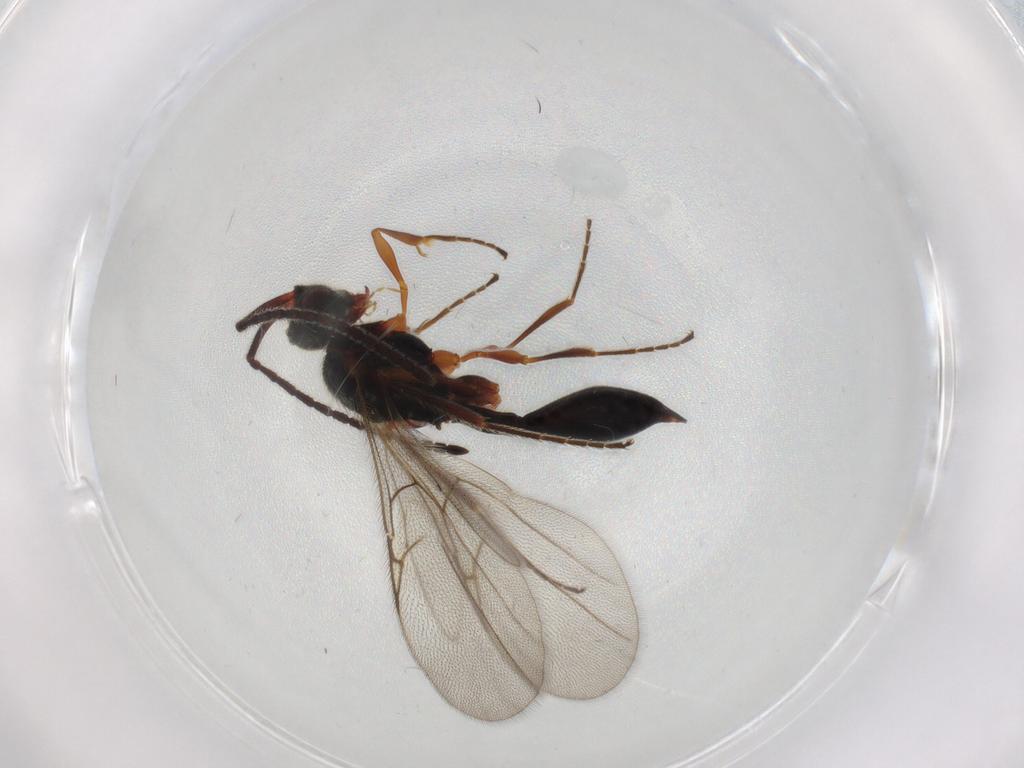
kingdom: Animalia
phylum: Arthropoda
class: Insecta
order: Hymenoptera
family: Diapriidae
